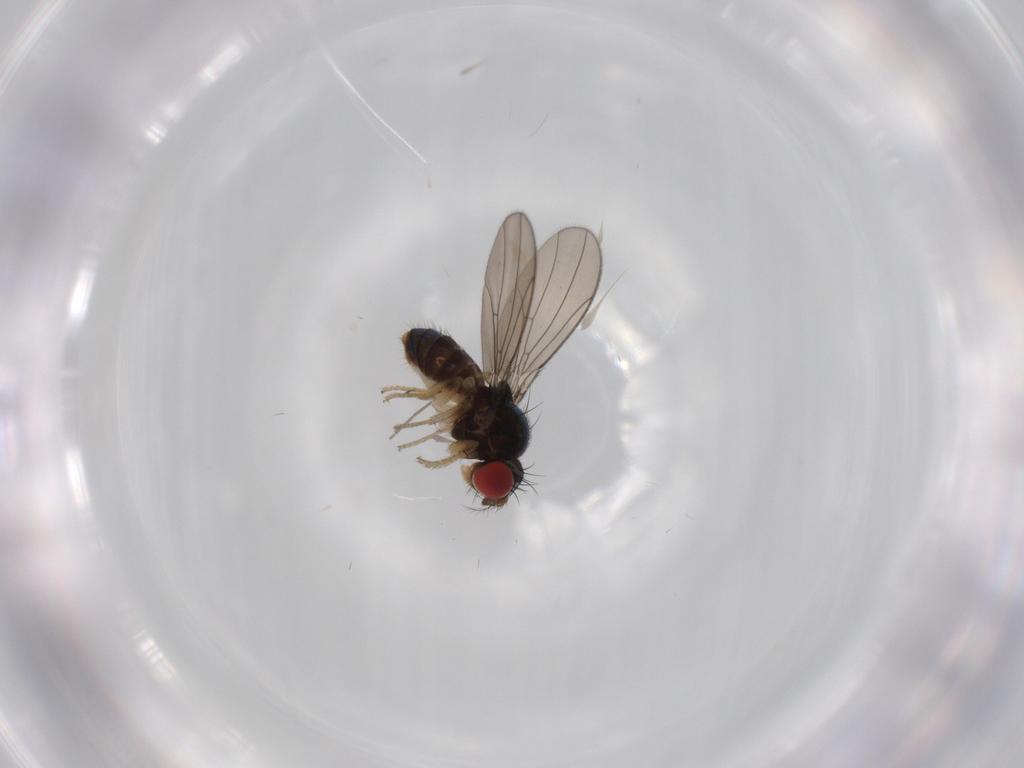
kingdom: Animalia
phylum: Arthropoda
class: Insecta
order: Diptera
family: Drosophilidae
